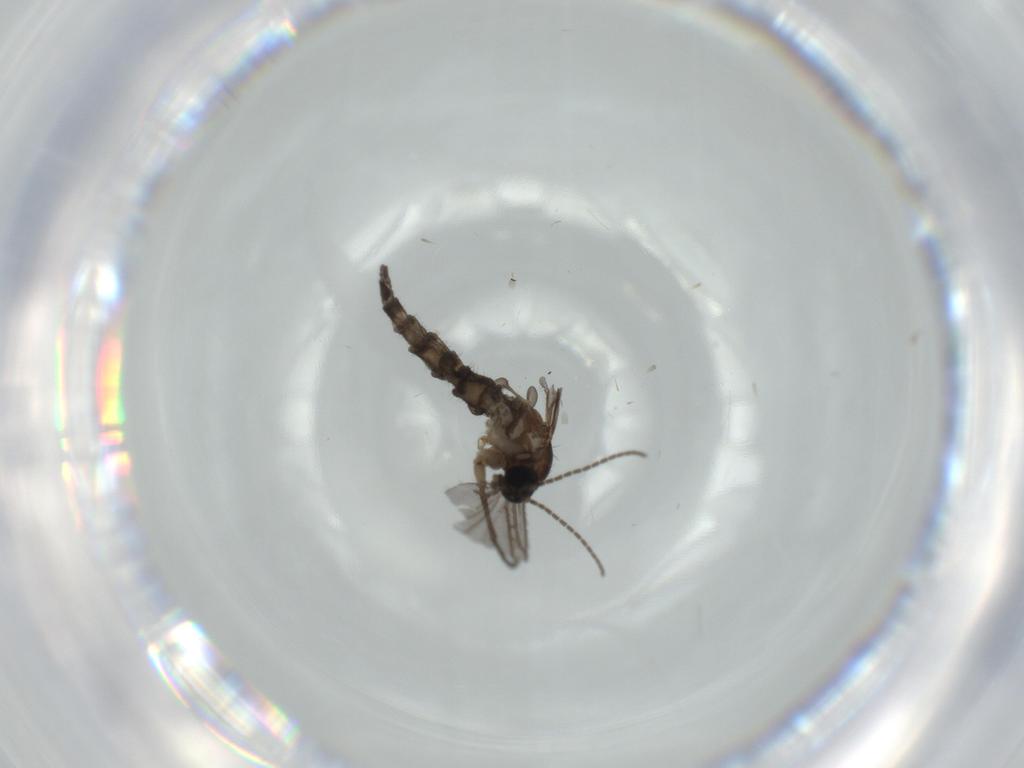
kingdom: Animalia
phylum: Arthropoda
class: Insecta
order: Diptera
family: Sciaridae
